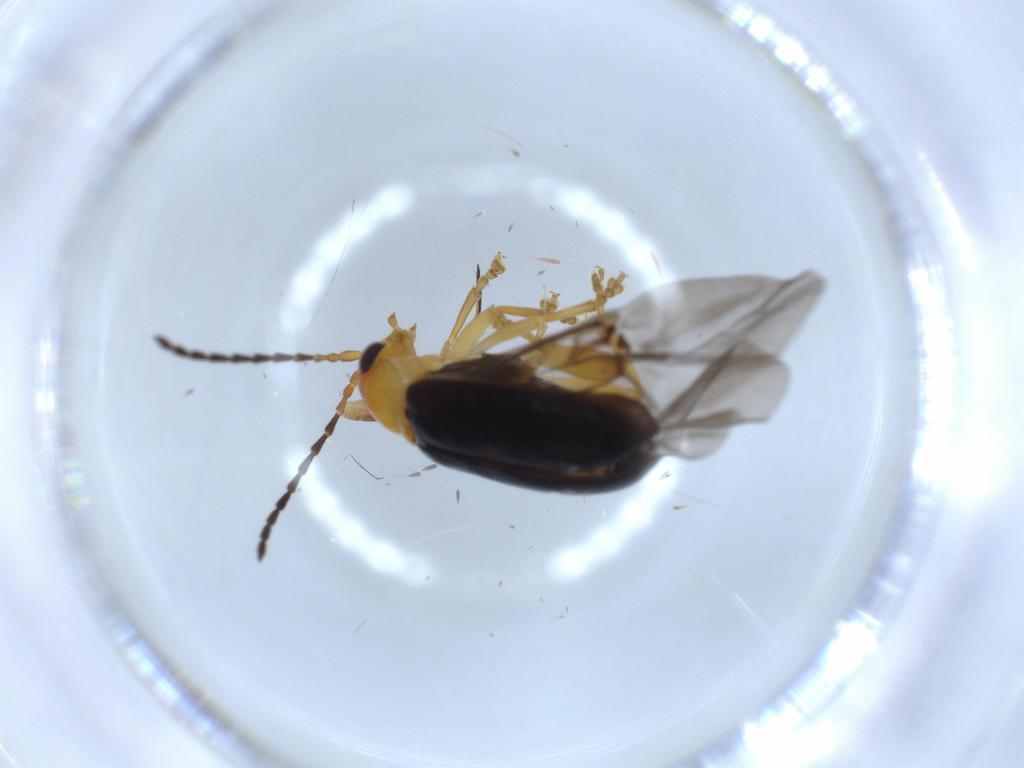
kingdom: Animalia
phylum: Arthropoda
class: Insecta
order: Coleoptera
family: Chrysomelidae
